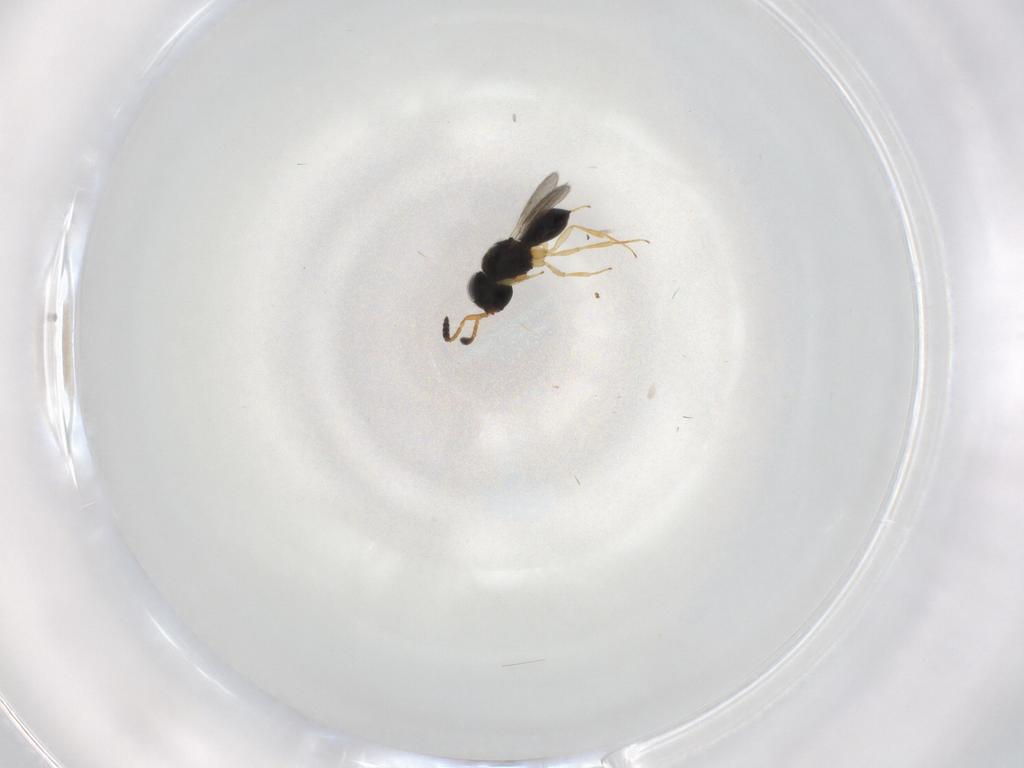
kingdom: Animalia
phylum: Arthropoda
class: Insecta
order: Hymenoptera
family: Scelionidae
